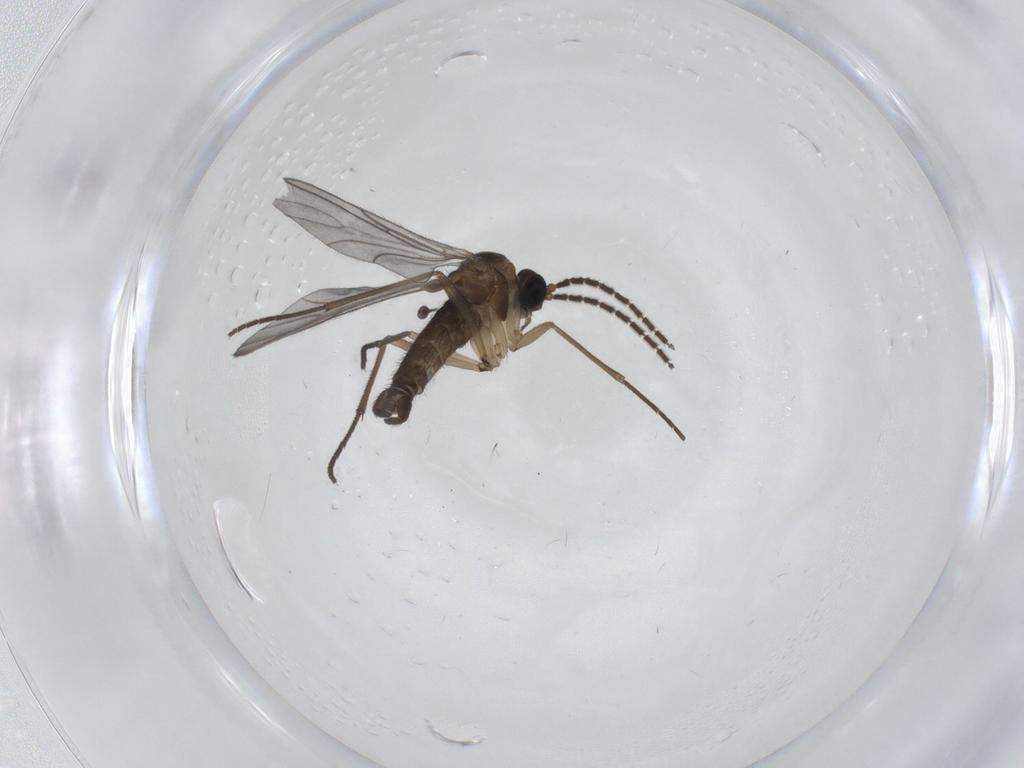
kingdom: Animalia
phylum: Arthropoda
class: Insecta
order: Diptera
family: Sciaridae
